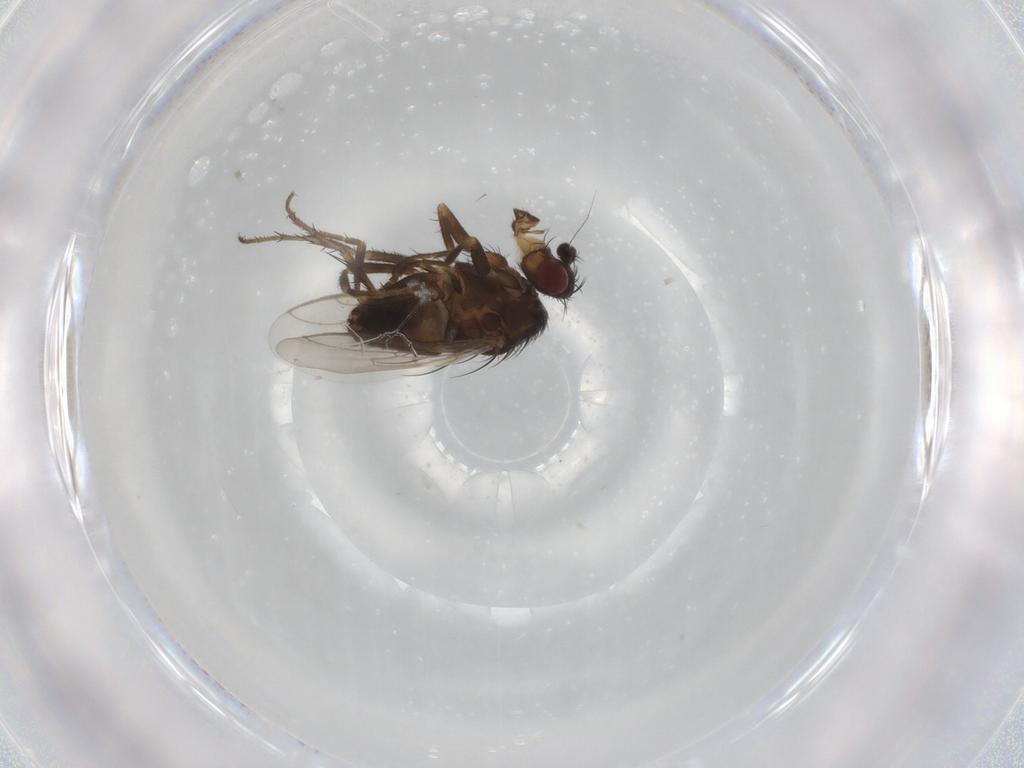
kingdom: Animalia
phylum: Arthropoda
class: Insecta
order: Diptera
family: Sphaeroceridae
